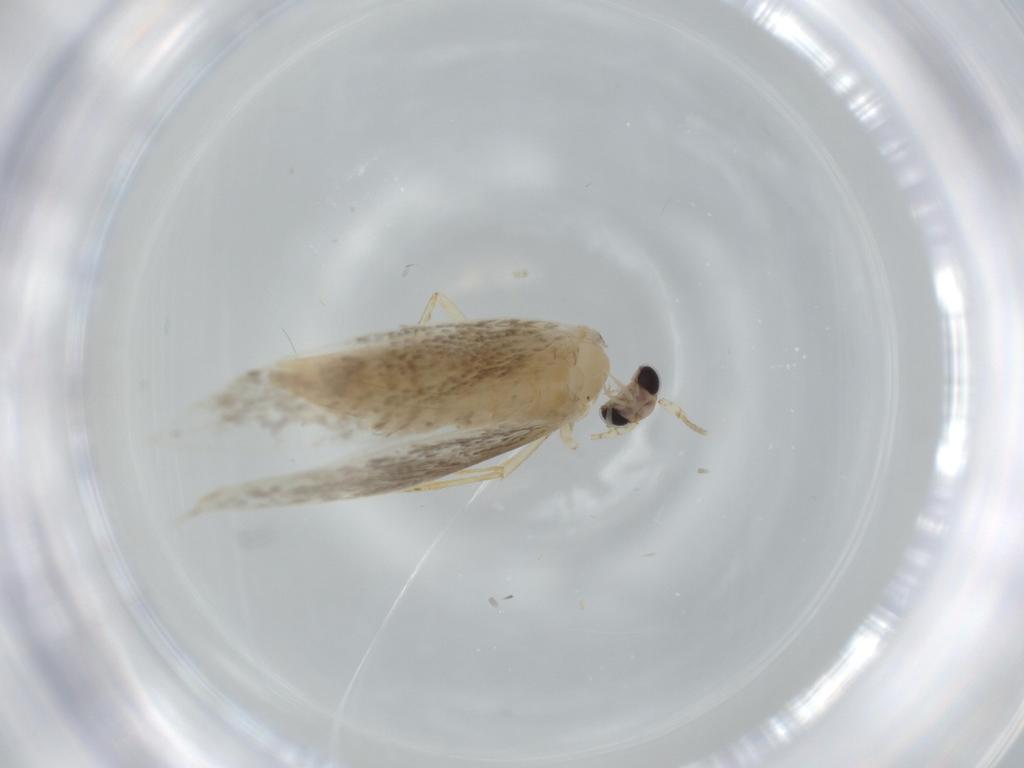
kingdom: Animalia
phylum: Arthropoda
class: Insecta
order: Lepidoptera
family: Tineidae
